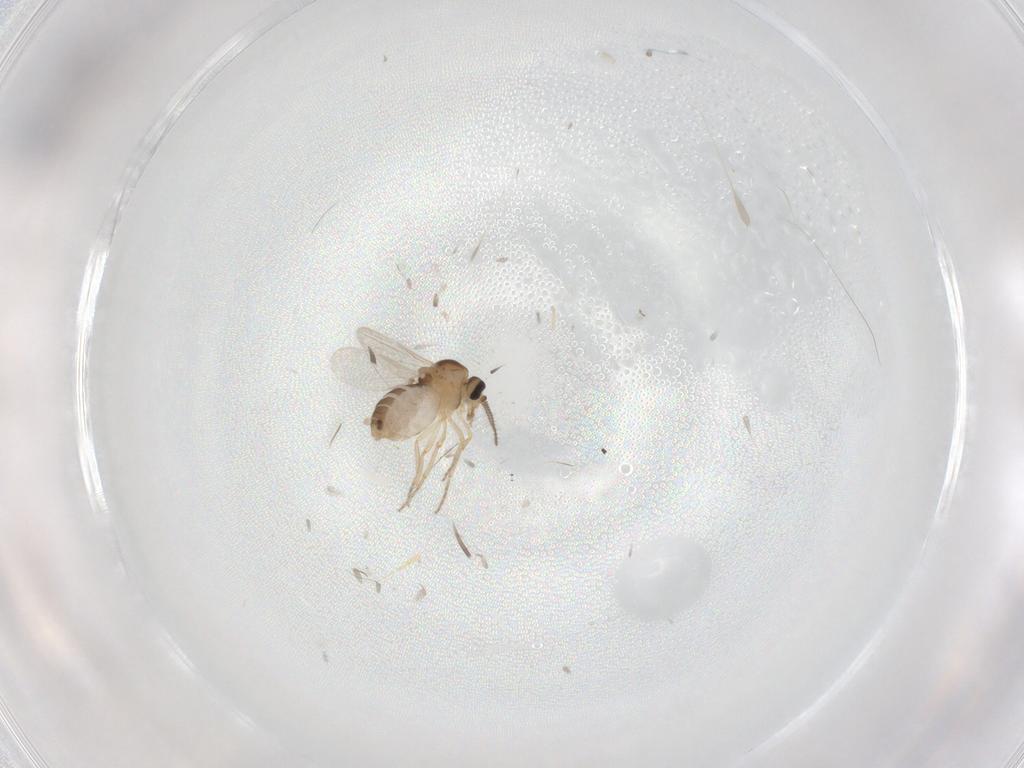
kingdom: Animalia
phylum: Arthropoda
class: Insecta
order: Diptera
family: Ceratopogonidae
